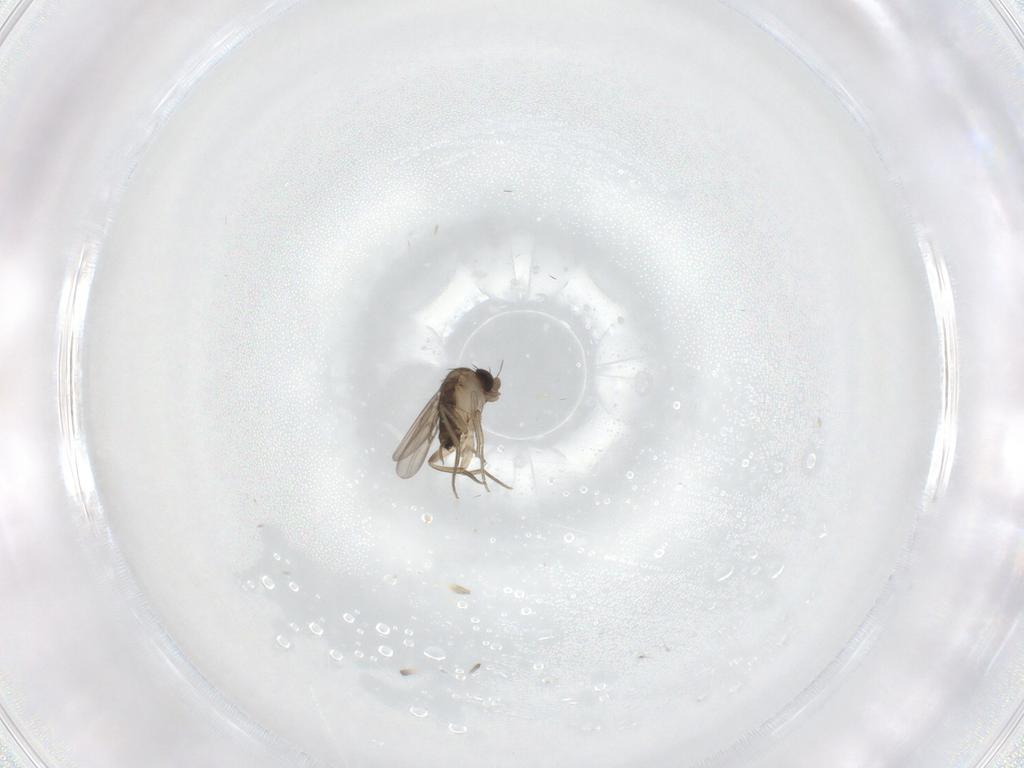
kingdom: Animalia
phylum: Arthropoda
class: Insecta
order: Diptera
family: Phoridae
